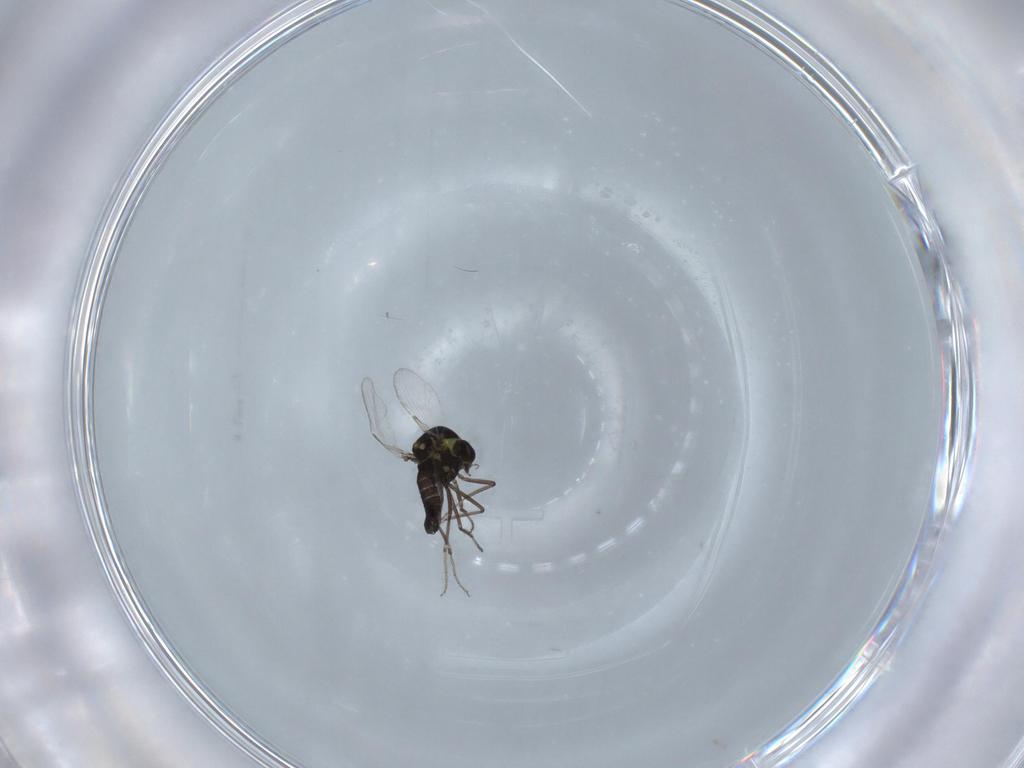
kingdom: Animalia
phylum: Arthropoda
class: Insecta
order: Diptera
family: Ceratopogonidae
